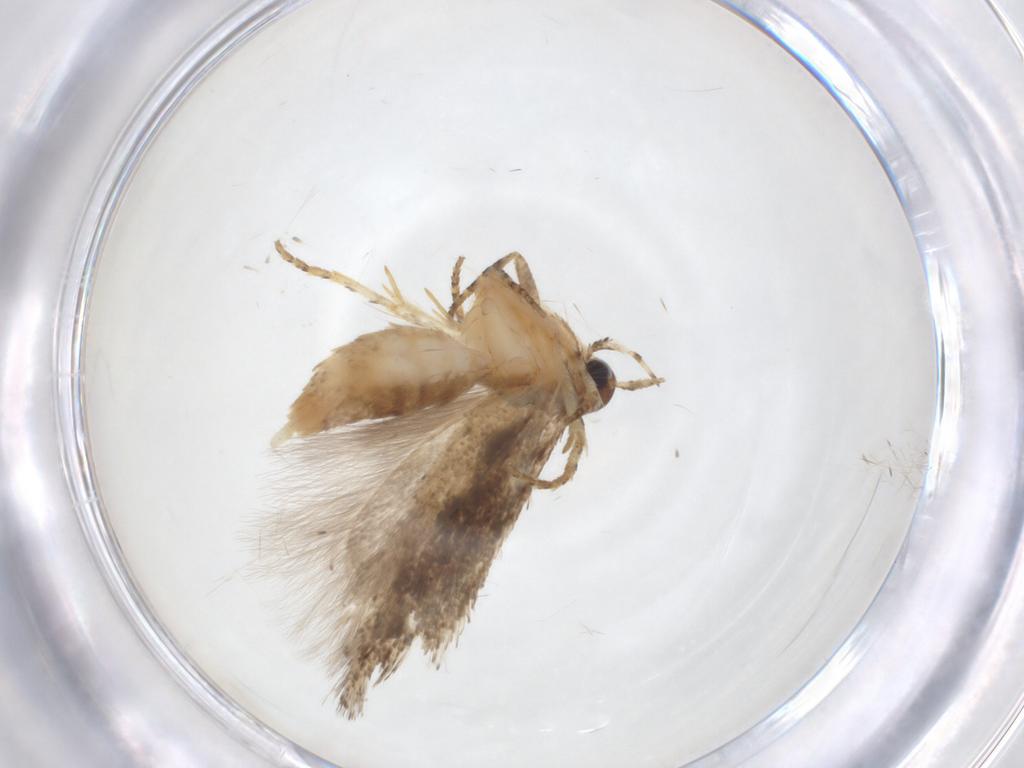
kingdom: Animalia
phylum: Arthropoda
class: Insecta
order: Lepidoptera
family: Gelechiidae
